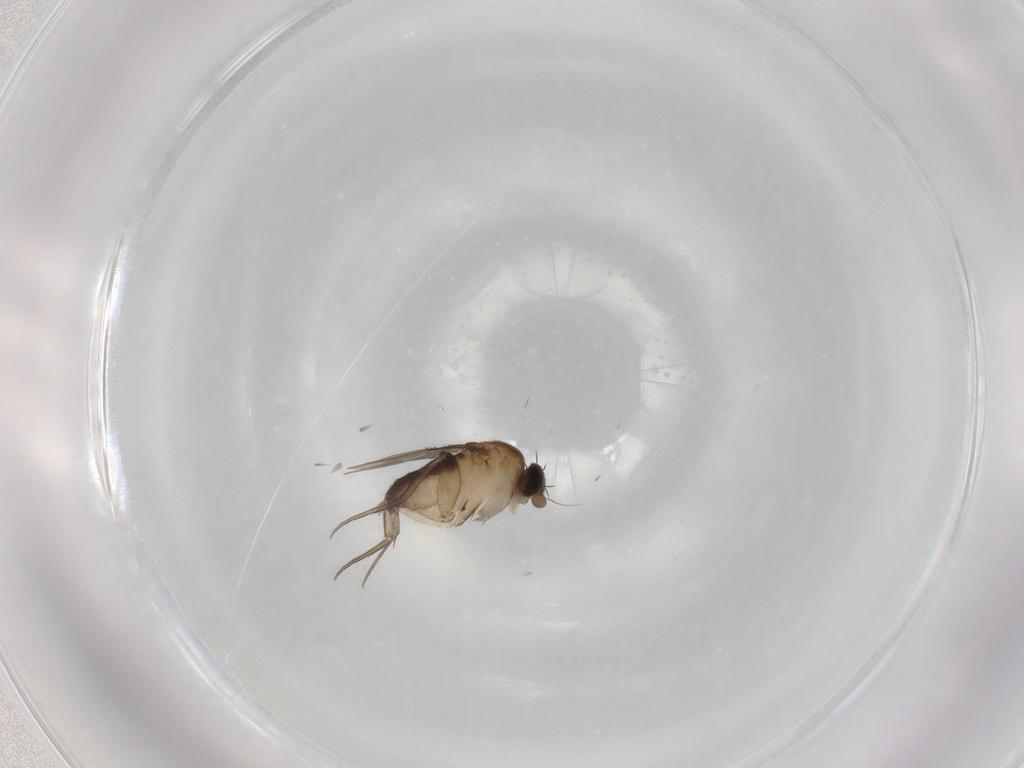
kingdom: Animalia
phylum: Arthropoda
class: Insecta
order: Diptera
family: Phoridae
